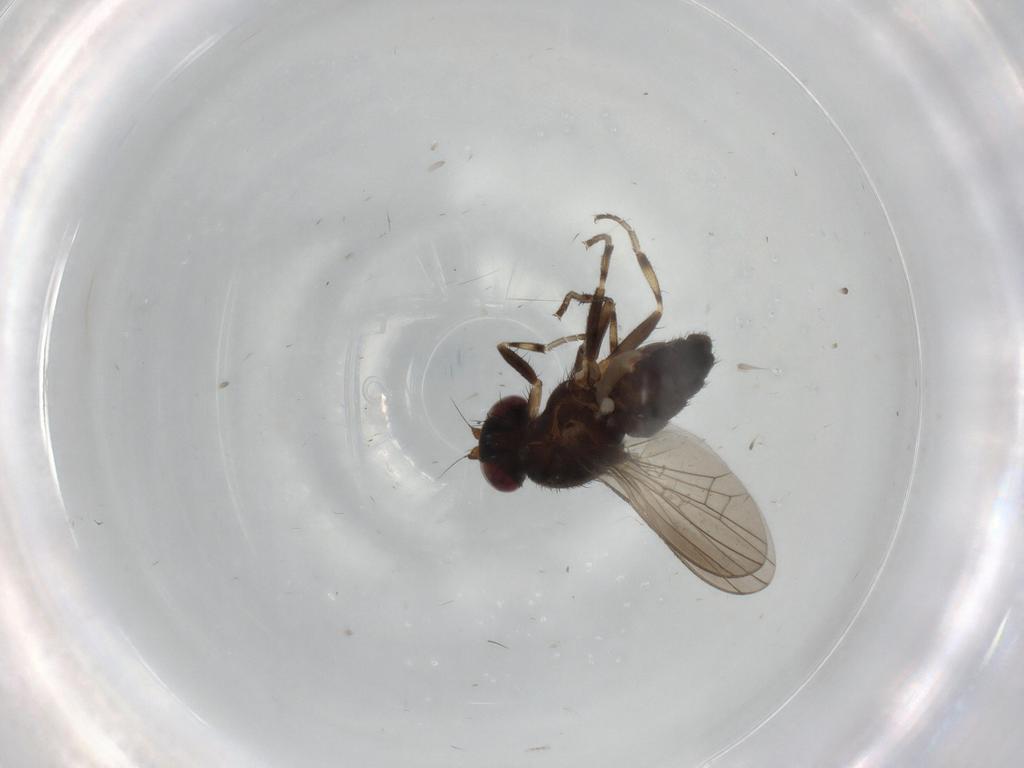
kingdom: Animalia
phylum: Arthropoda
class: Insecta
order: Diptera
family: Heleomyzidae
